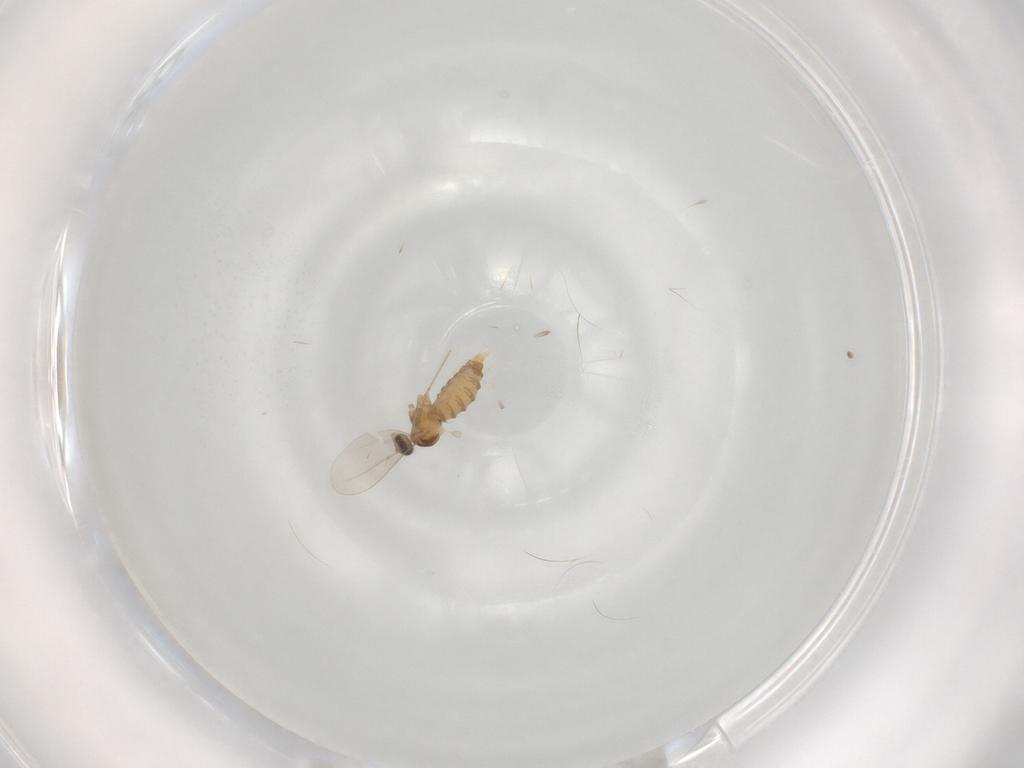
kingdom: Animalia
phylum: Arthropoda
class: Insecta
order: Diptera
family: Cecidomyiidae
